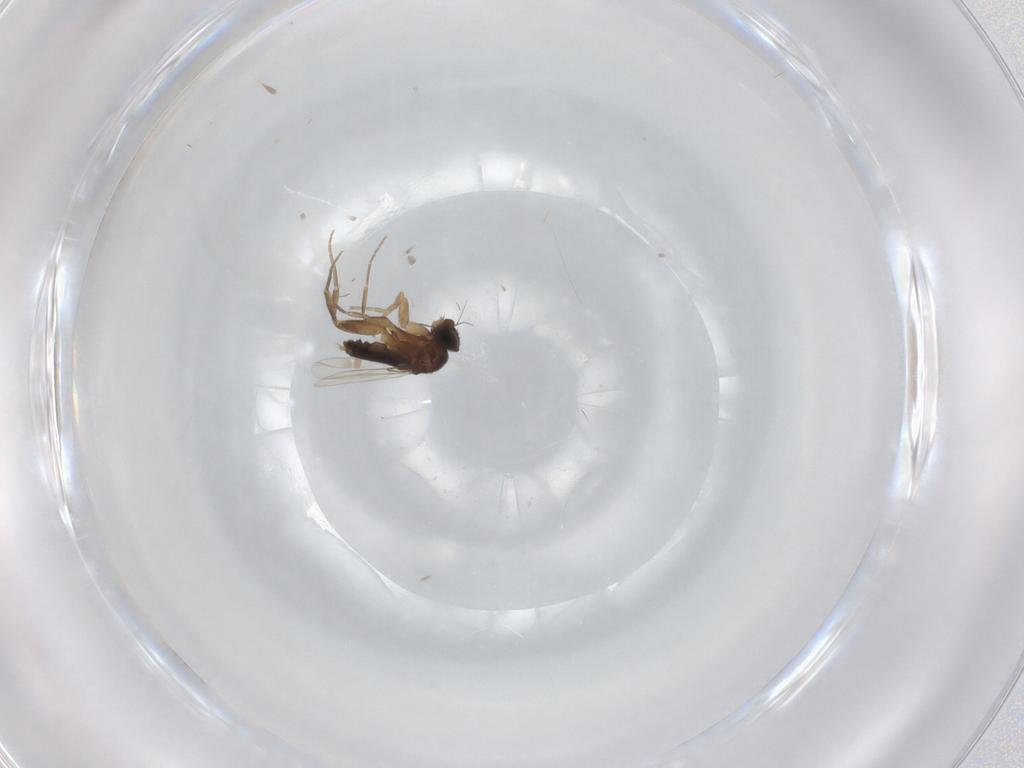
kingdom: Animalia
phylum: Arthropoda
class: Insecta
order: Diptera
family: Phoridae
